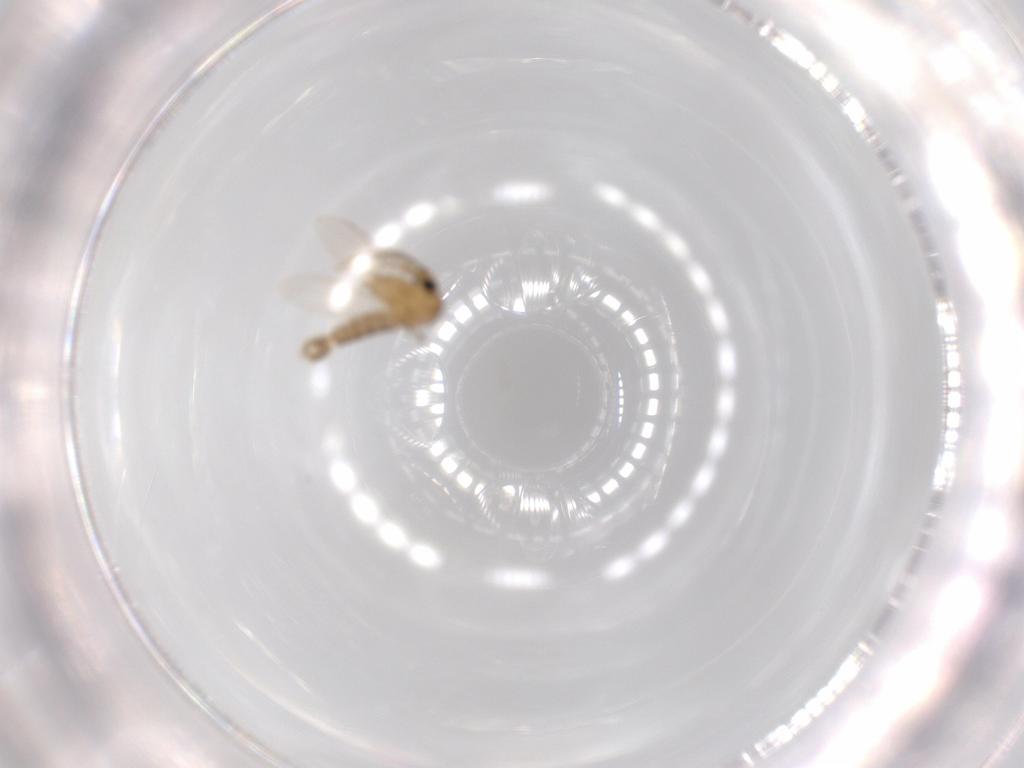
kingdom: Animalia
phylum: Arthropoda
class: Insecta
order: Diptera
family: Psychodidae
